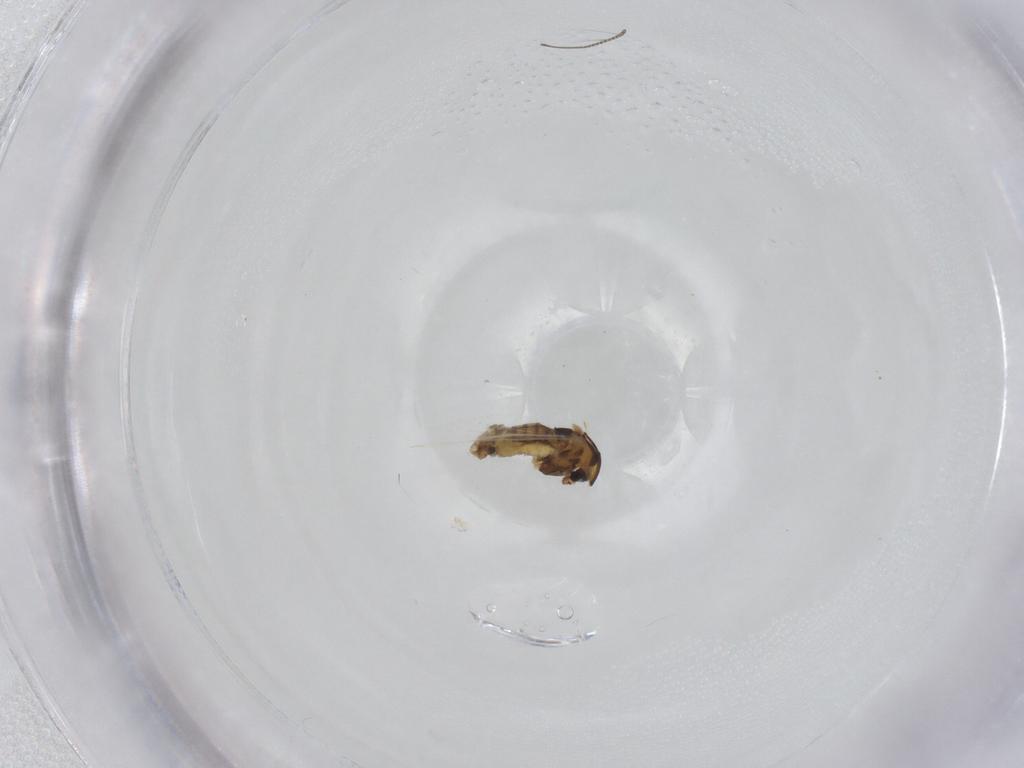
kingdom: Animalia
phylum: Arthropoda
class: Insecta
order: Diptera
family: Chironomidae
